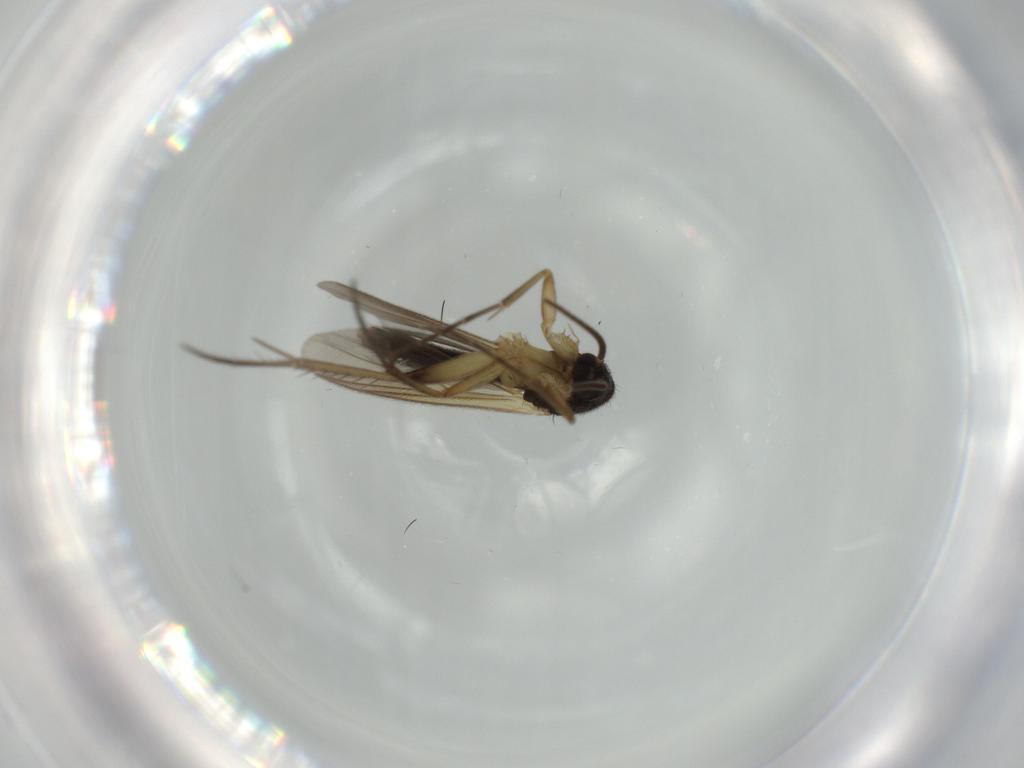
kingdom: Animalia
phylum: Arthropoda
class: Insecta
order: Diptera
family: Mycetophilidae
